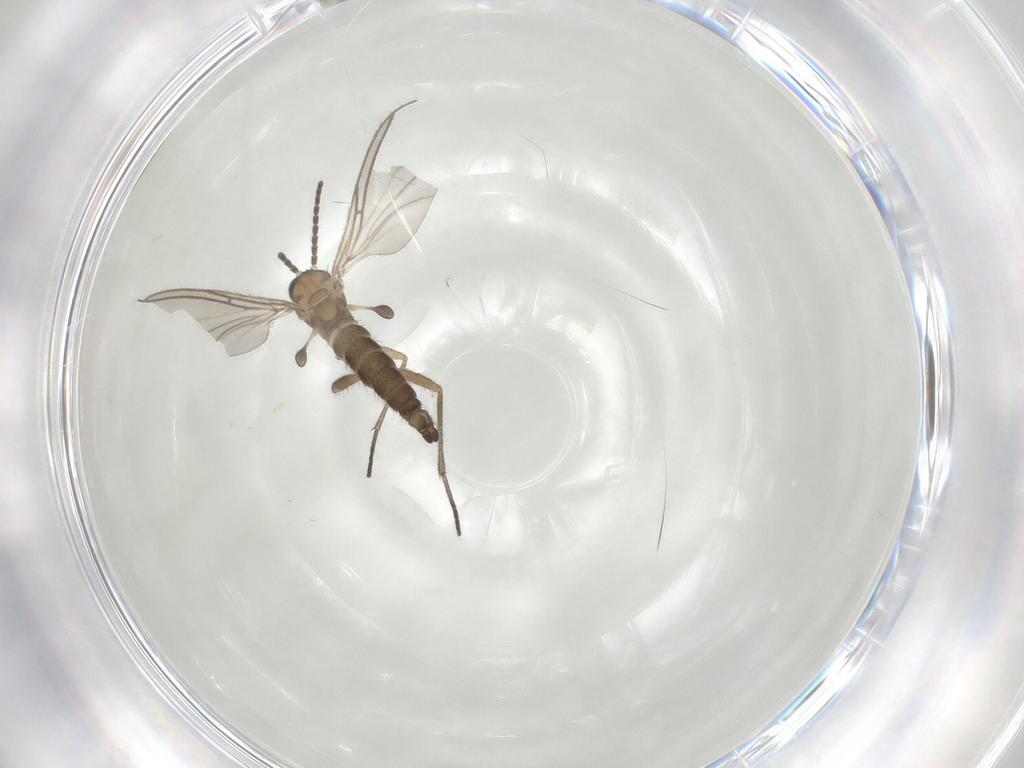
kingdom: Animalia
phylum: Arthropoda
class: Insecta
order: Diptera
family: Sciaridae
